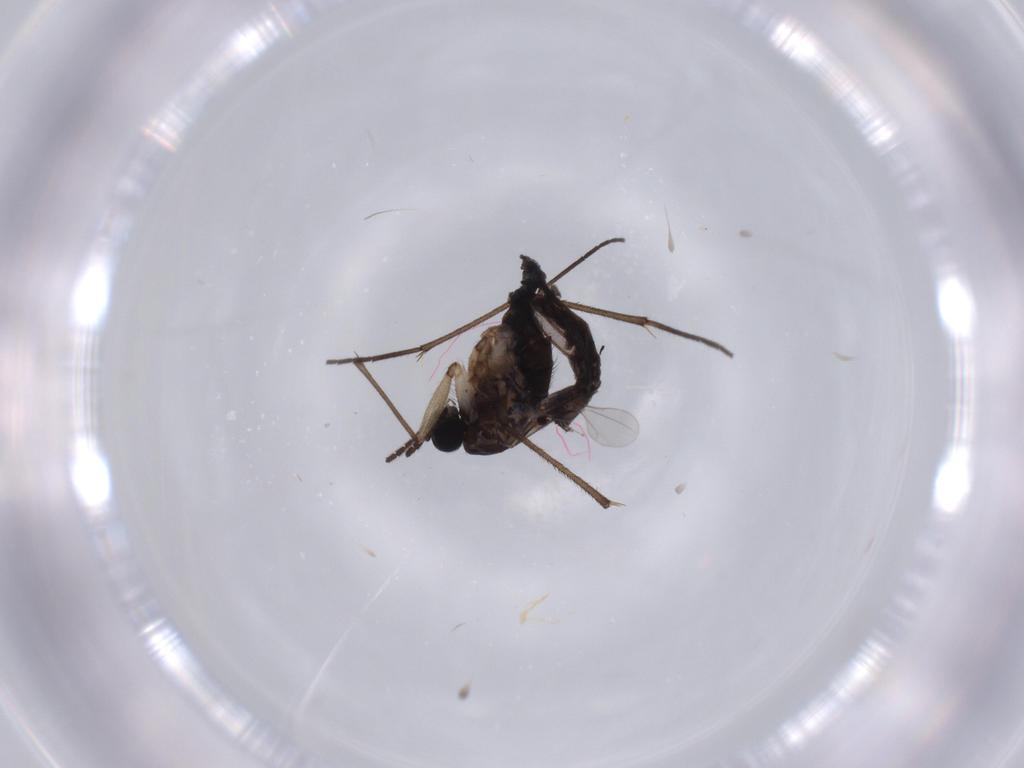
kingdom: Animalia
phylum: Arthropoda
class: Insecta
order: Diptera
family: Cecidomyiidae
